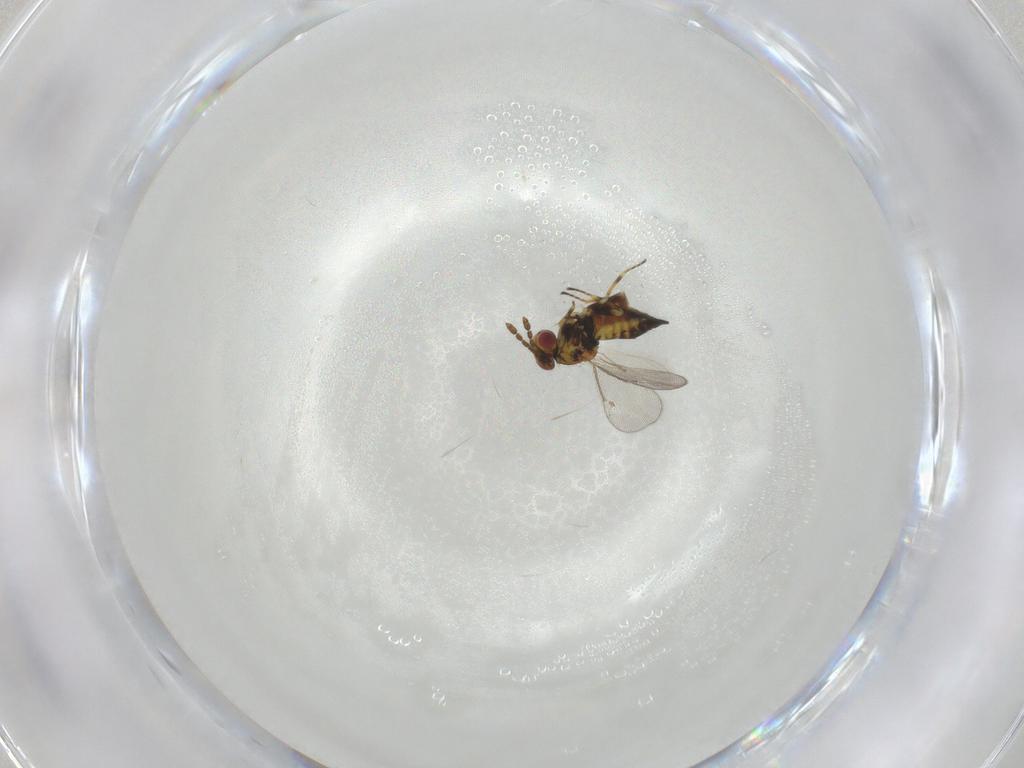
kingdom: Animalia
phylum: Arthropoda
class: Insecta
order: Hymenoptera
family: Eulophidae
